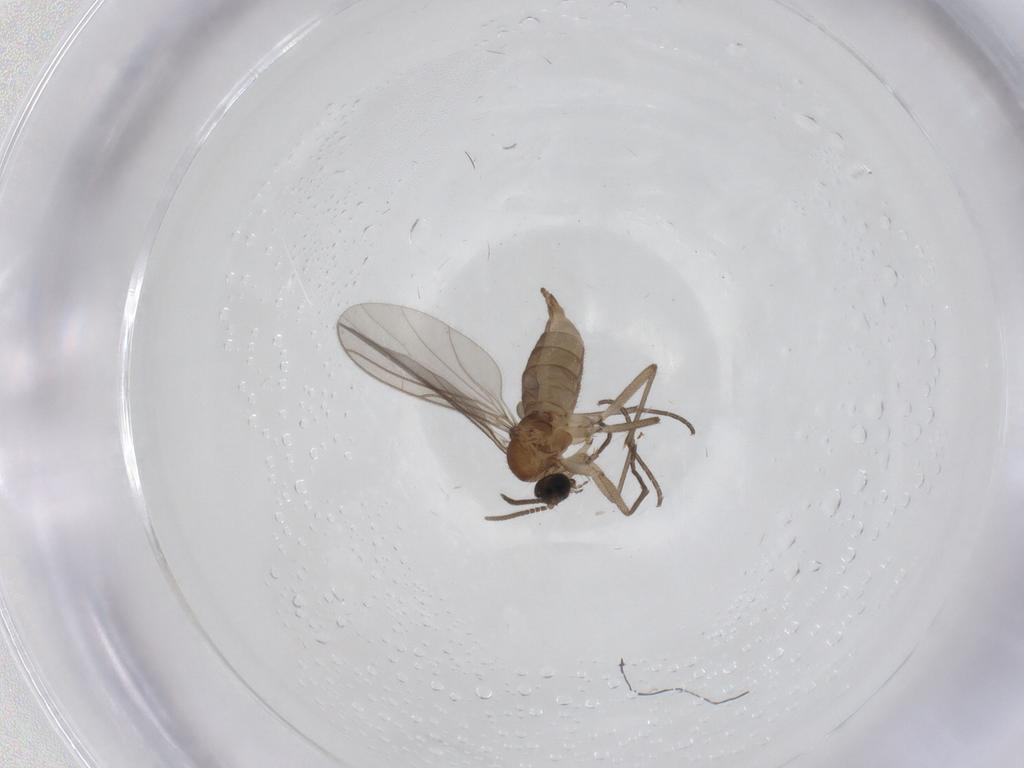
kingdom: Animalia
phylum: Arthropoda
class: Insecta
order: Diptera
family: Sciaridae
